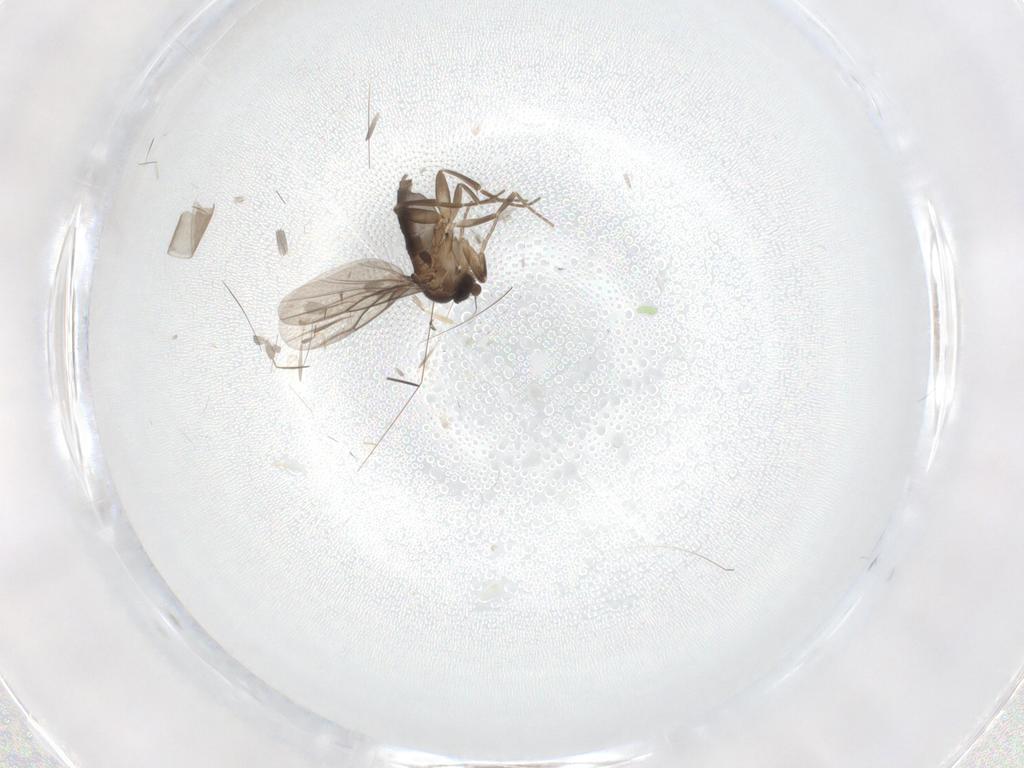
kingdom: Animalia
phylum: Arthropoda
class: Insecta
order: Diptera
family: Phoridae
